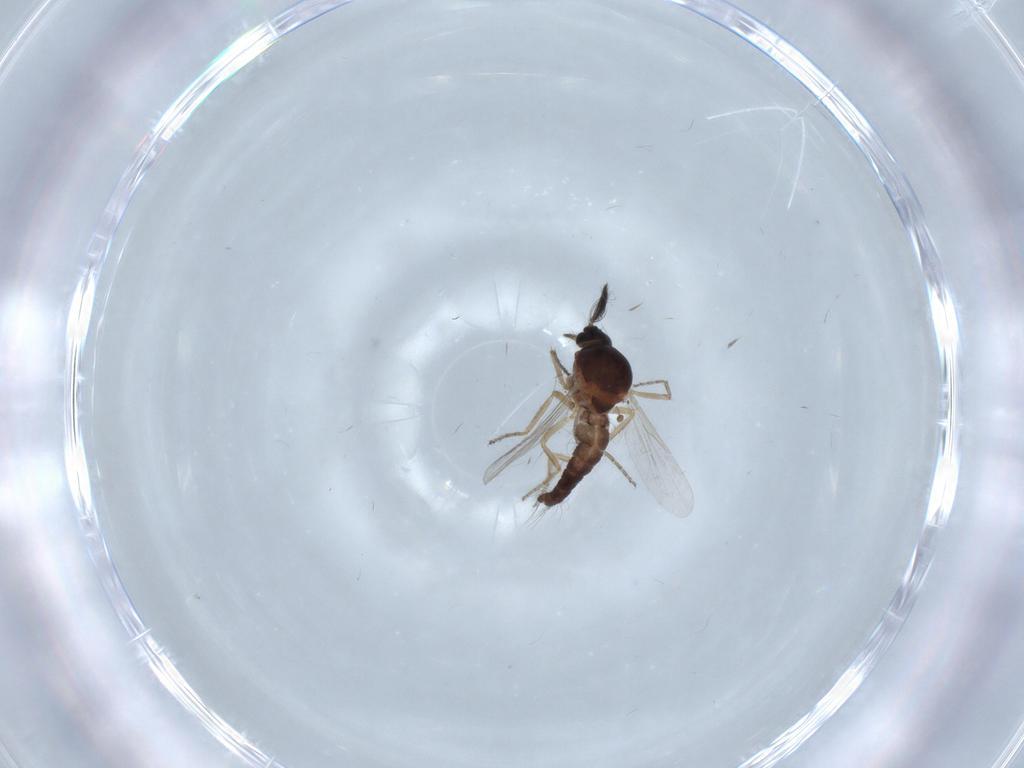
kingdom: Animalia
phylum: Arthropoda
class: Insecta
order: Diptera
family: Ceratopogonidae
